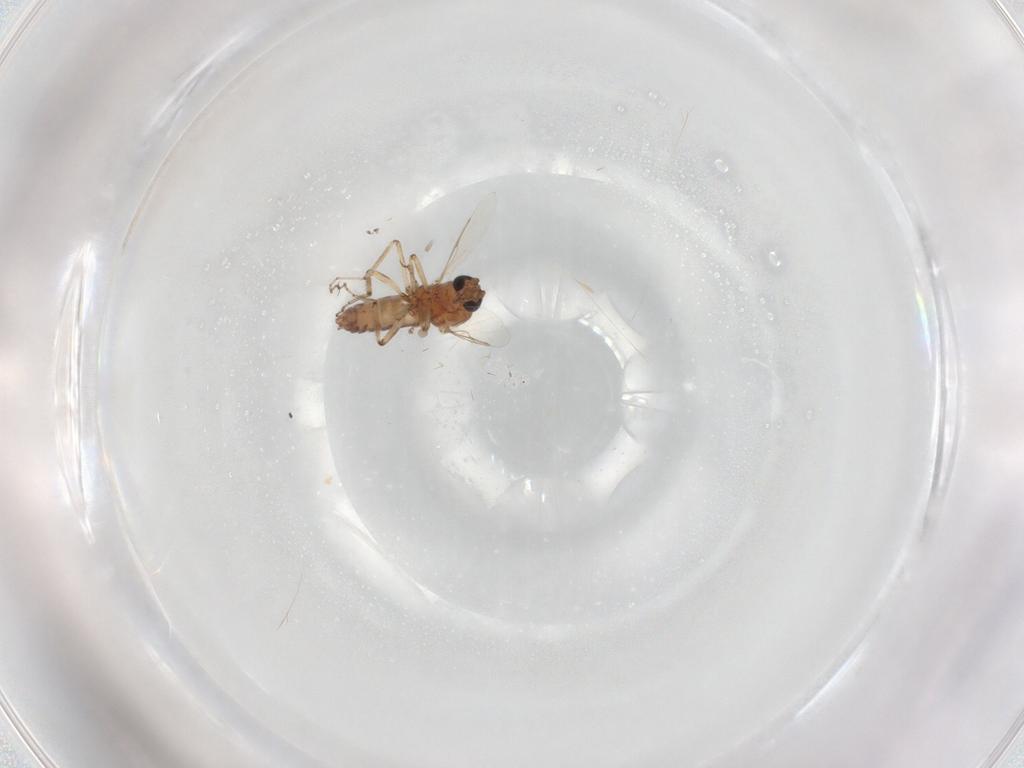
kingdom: Animalia
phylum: Arthropoda
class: Insecta
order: Diptera
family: Ceratopogonidae
